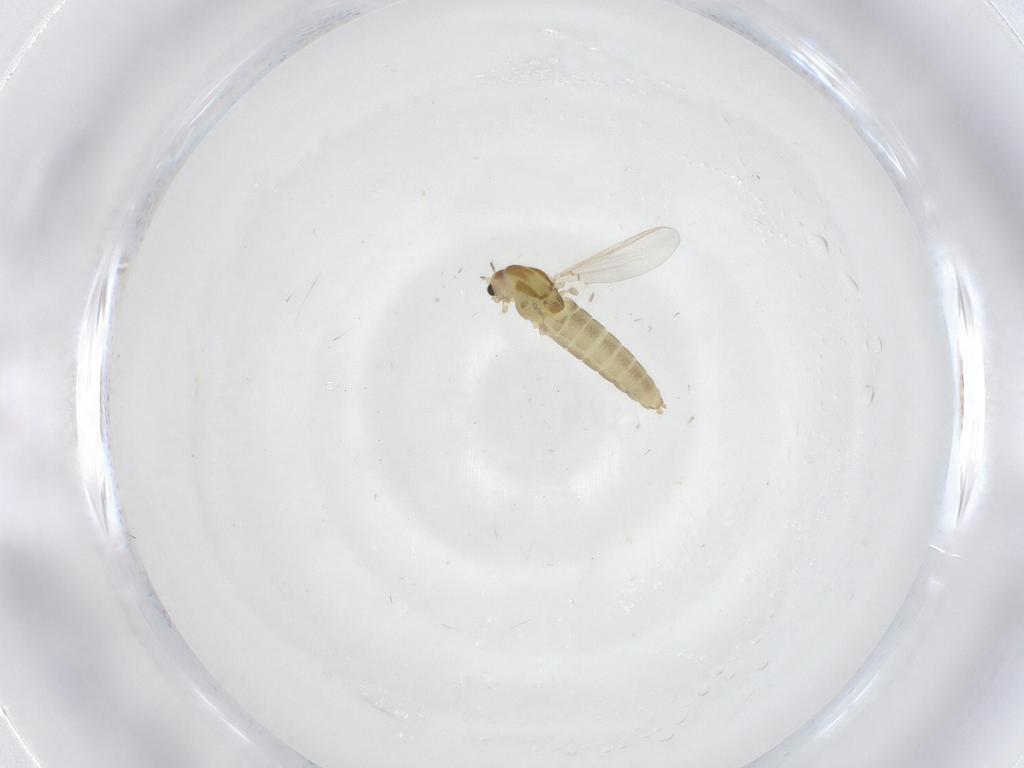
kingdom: Animalia
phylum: Arthropoda
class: Insecta
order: Diptera
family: Chironomidae
